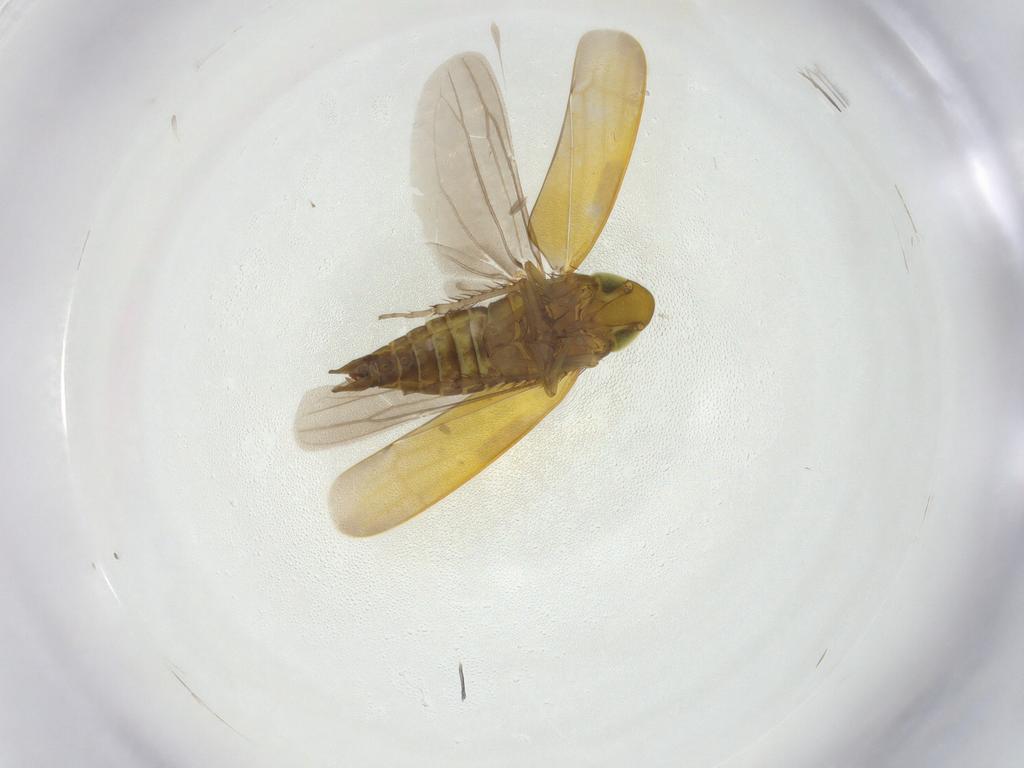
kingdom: Animalia
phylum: Arthropoda
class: Insecta
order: Hemiptera
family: Cicadellidae
